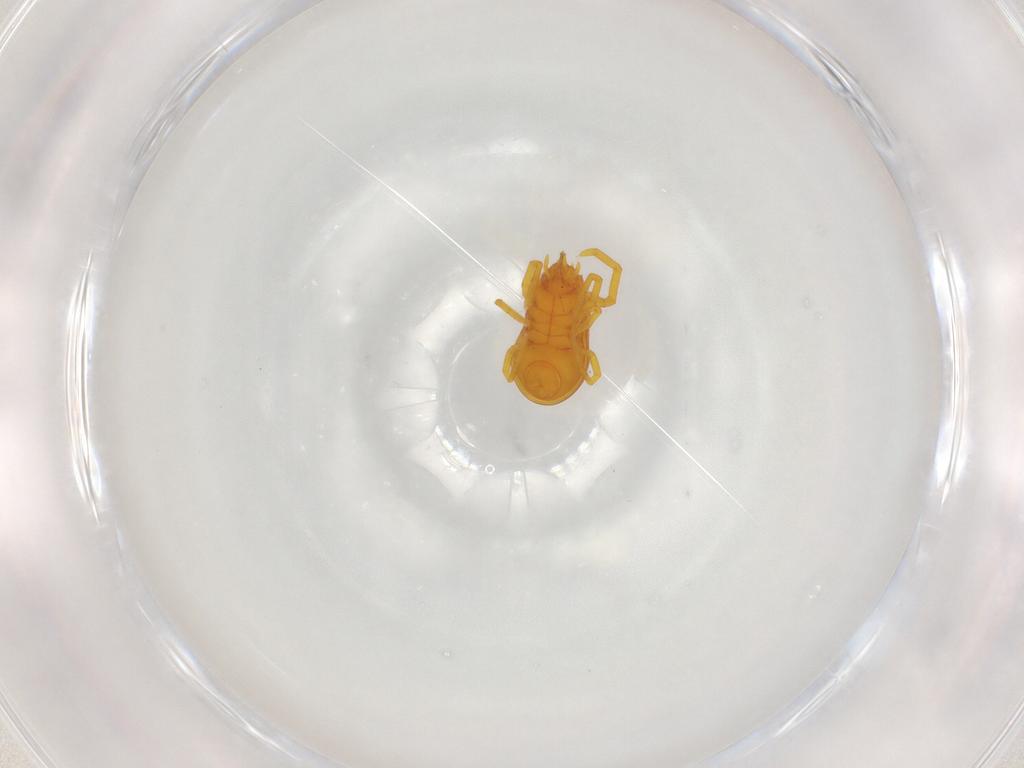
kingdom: Animalia
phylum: Arthropoda
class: Arachnida
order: Trombidiformes
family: Labidostommidae
